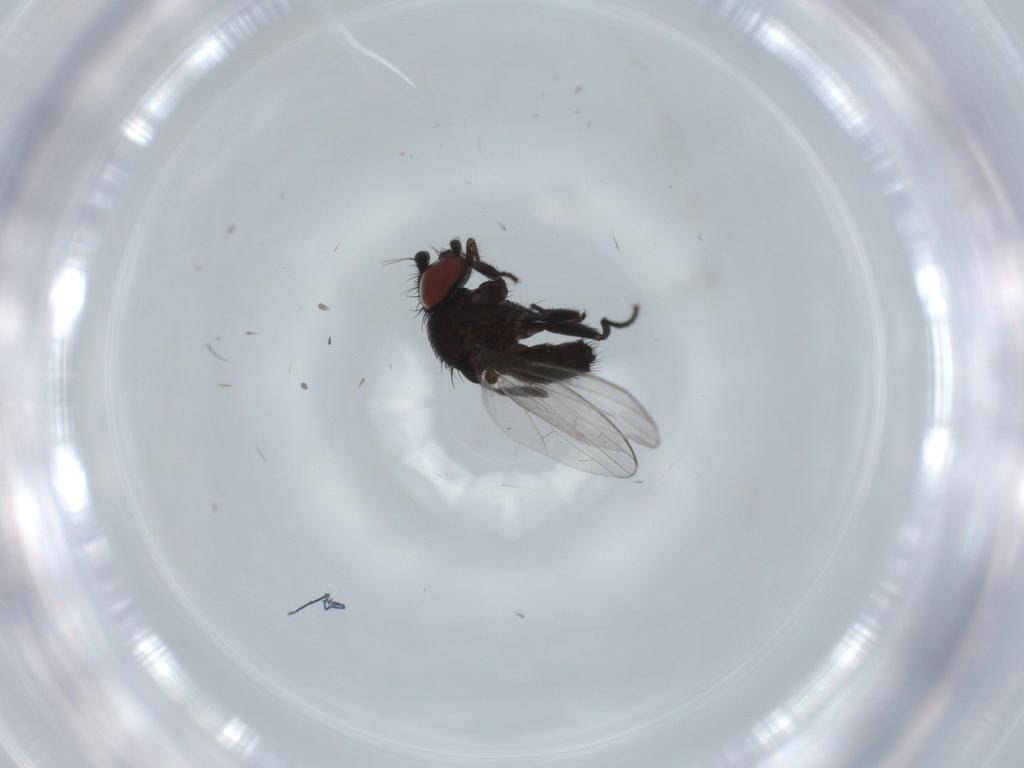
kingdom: Animalia
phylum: Arthropoda
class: Insecta
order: Diptera
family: Milichiidae
